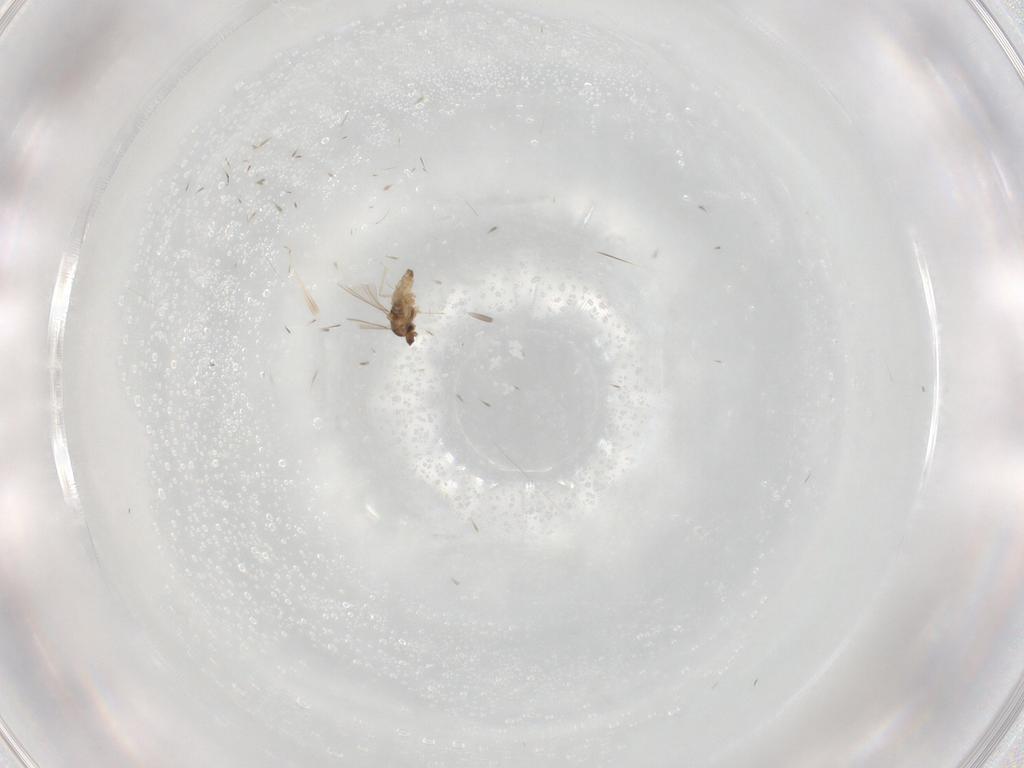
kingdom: Animalia
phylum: Arthropoda
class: Insecta
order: Diptera
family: Cecidomyiidae
